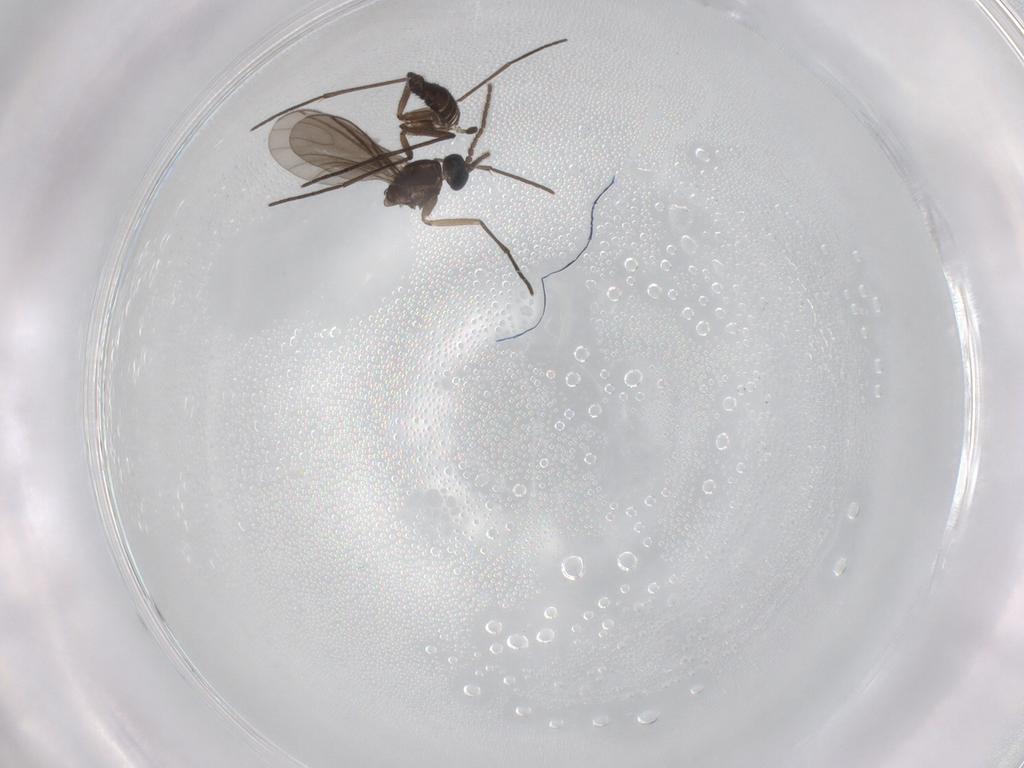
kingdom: Animalia
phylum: Arthropoda
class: Insecta
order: Diptera
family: Sciaridae
